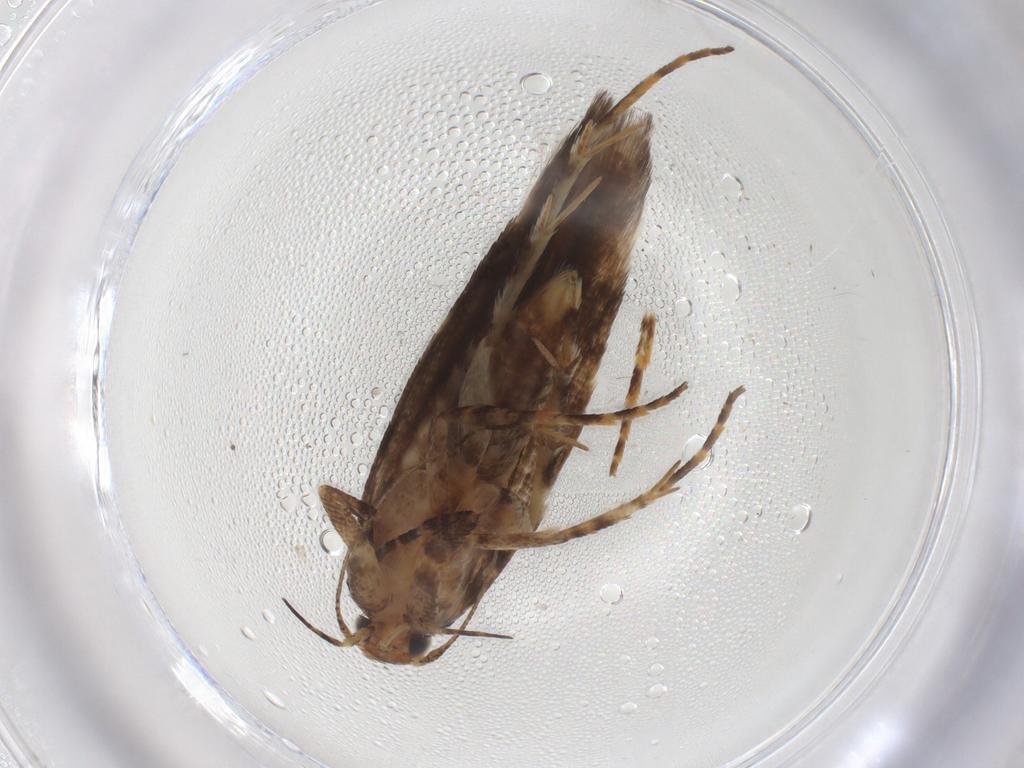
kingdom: Animalia
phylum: Arthropoda
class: Insecta
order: Lepidoptera
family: Gelechiidae
